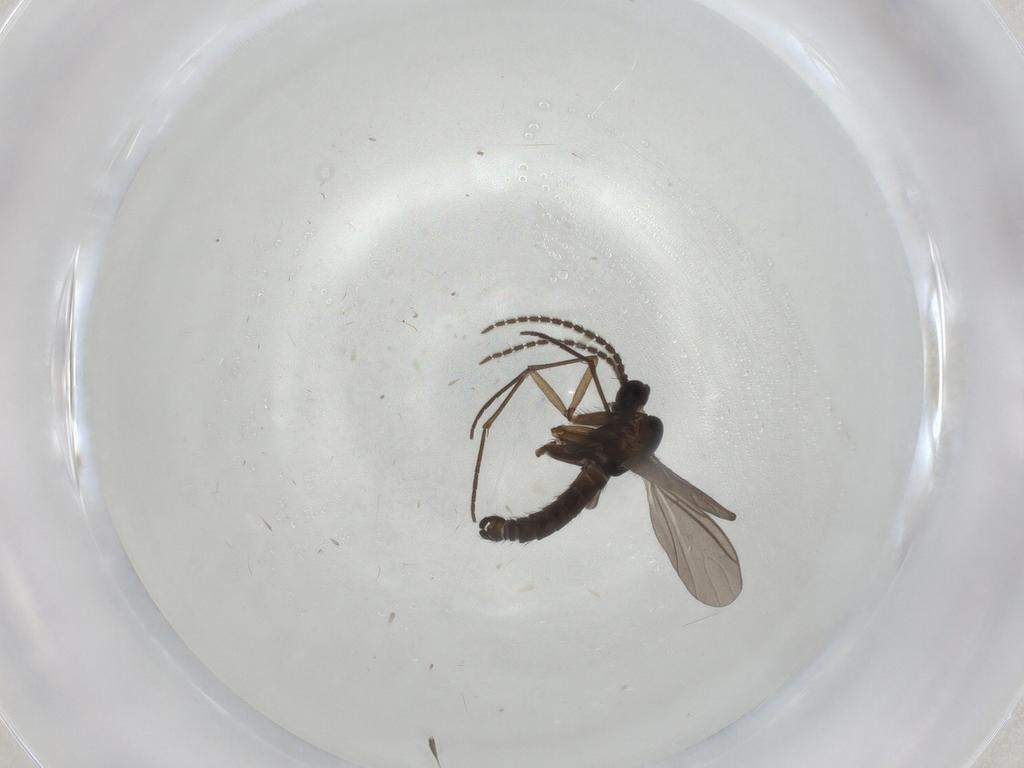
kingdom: Animalia
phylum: Arthropoda
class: Insecta
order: Diptera
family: Sciaridae
